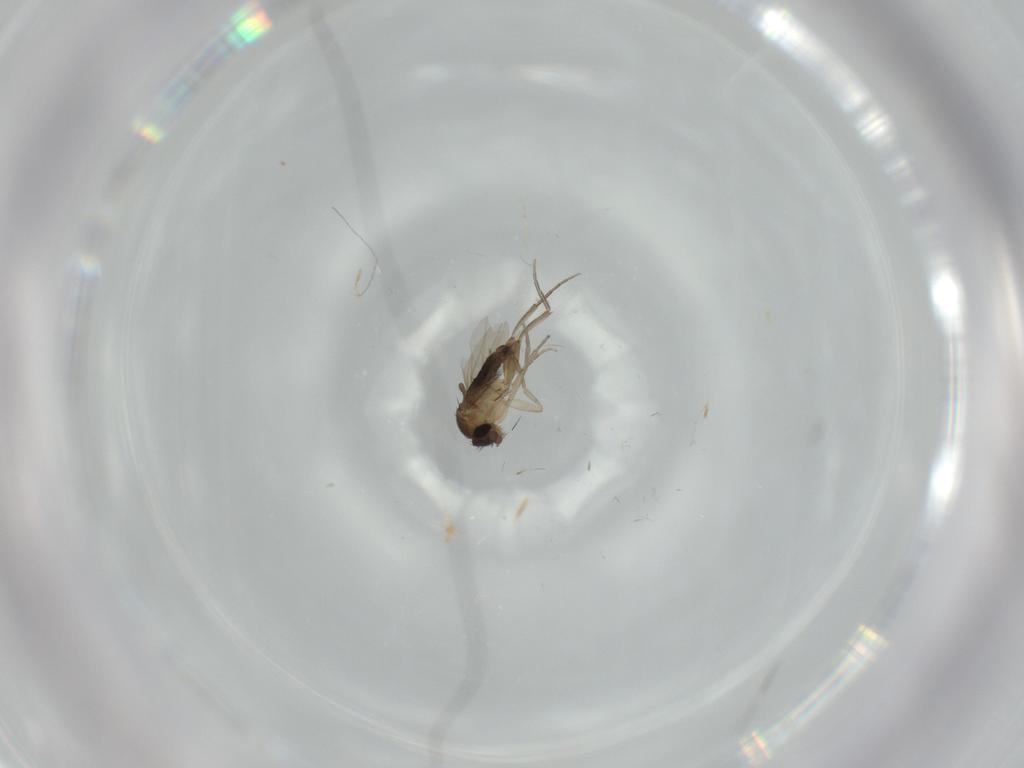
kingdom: Animalia
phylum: Arthropoda
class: Insecta
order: Diptera
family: Phoridae
